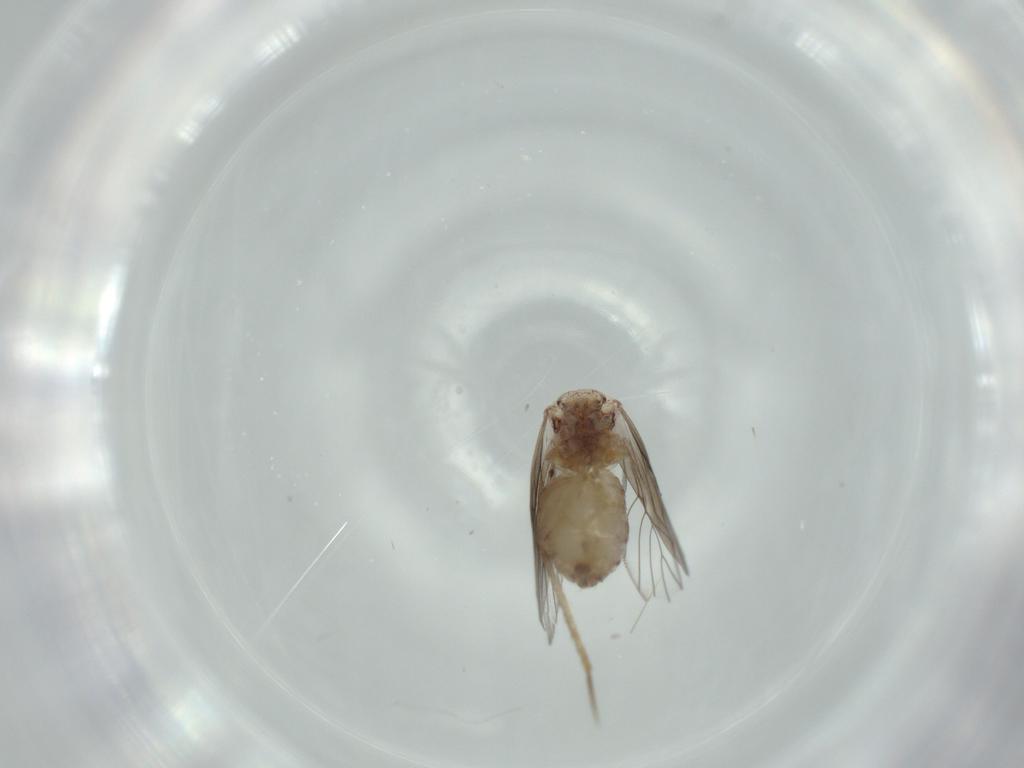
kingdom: Animalia
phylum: Arthropoda
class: Insecta
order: Psocodea
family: Lepidopsocidae
